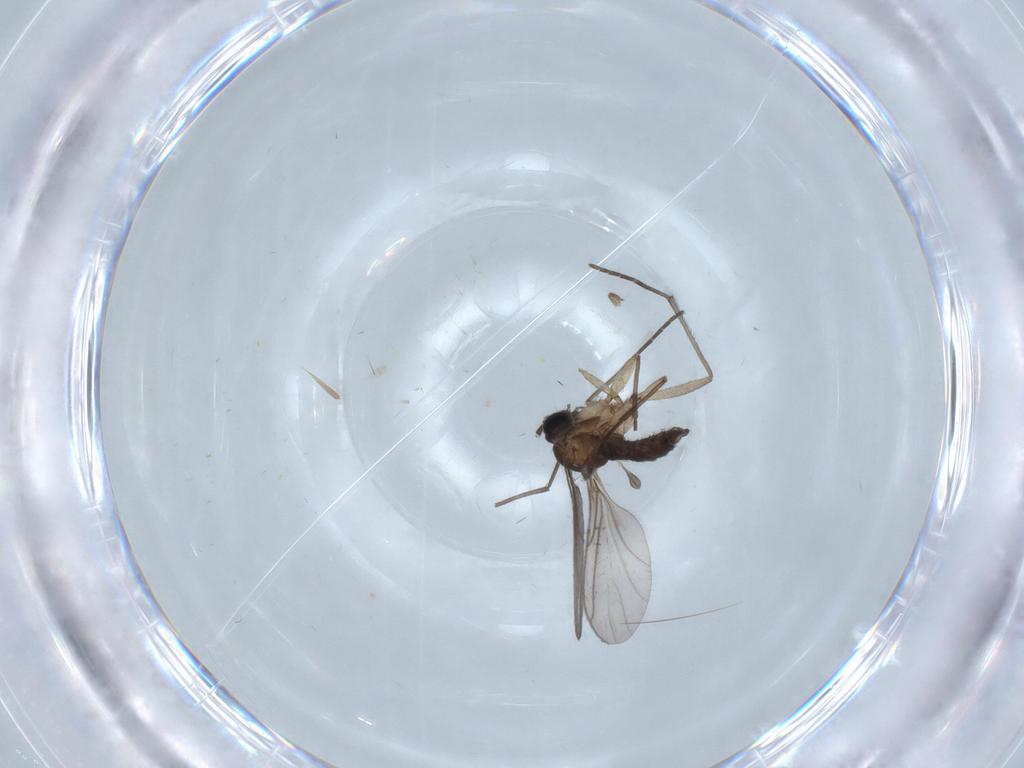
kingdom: Animalia
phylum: Arthropoda
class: Insecta
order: Diptera
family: Sciaridae
